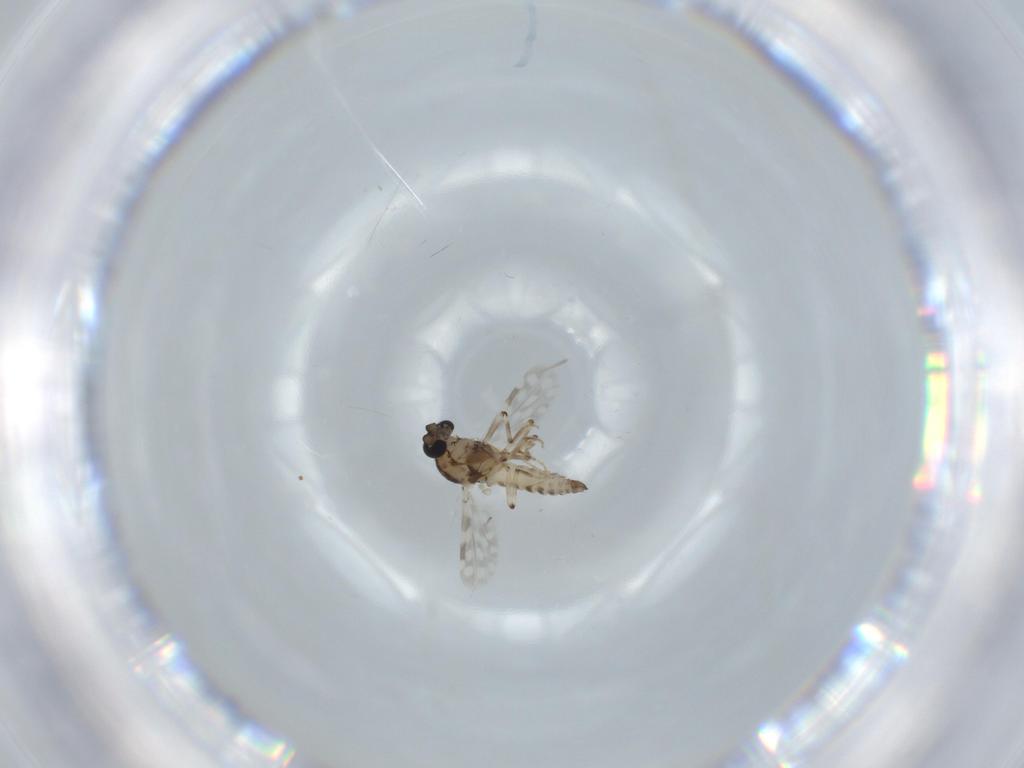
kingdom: Animalia
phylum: Arthropoda
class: Insecta
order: Diptera
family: Ceratopogonidae
